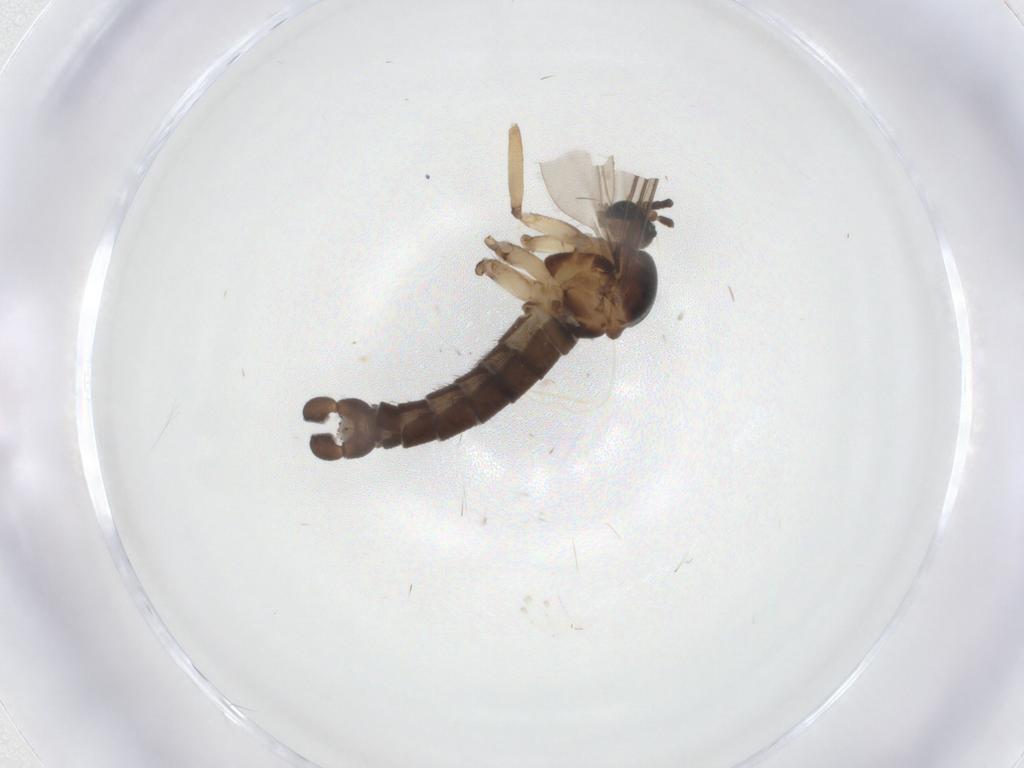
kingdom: Animalia
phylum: Arthropoda
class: Insecta
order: Diptera
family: Sciaridae
